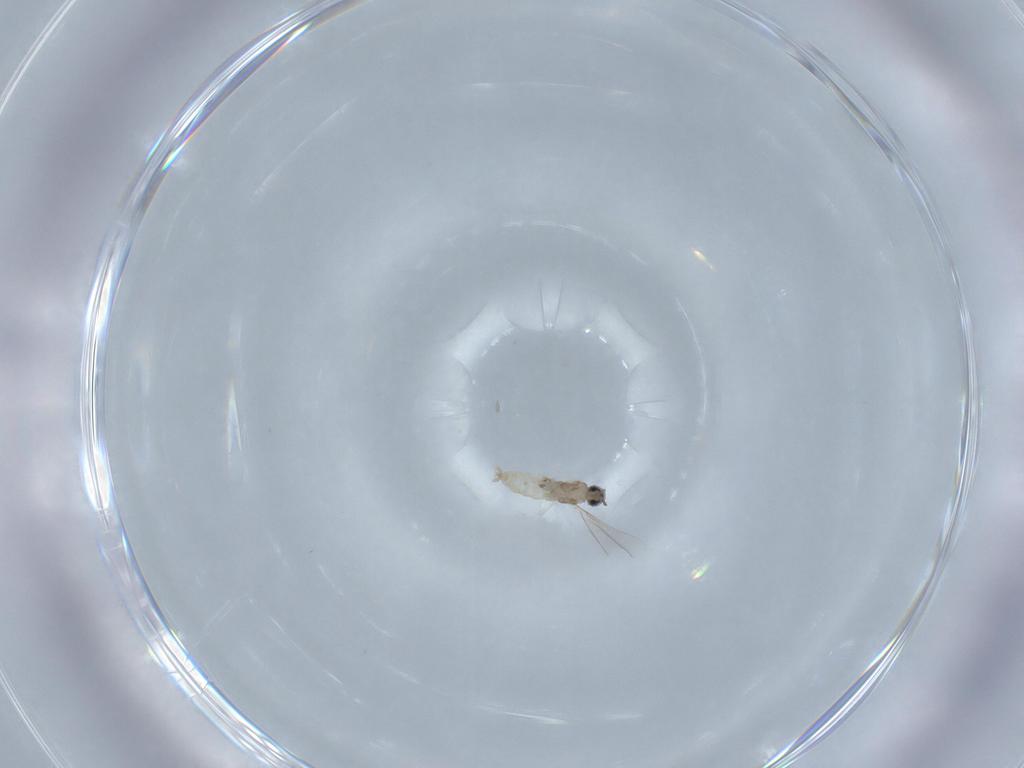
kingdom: Animalia
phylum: Arthropoda
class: Insecta
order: Diptera
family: Cecidomyiidae
